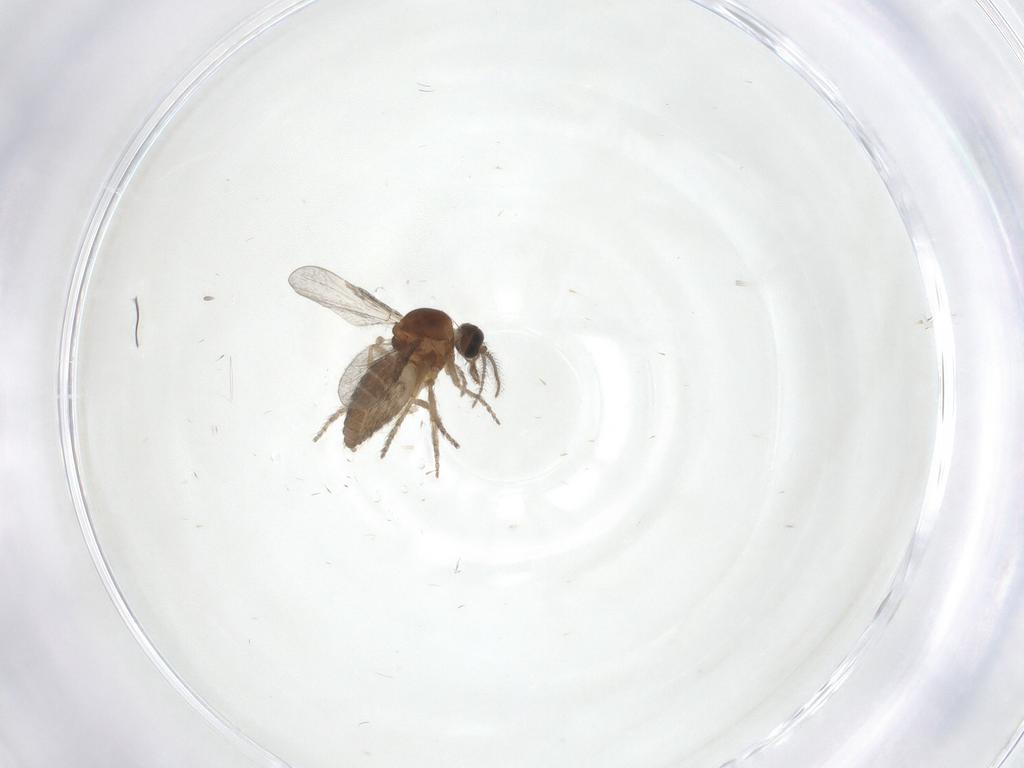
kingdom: Animalia
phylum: Arthropoda
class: Insecta
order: Diptera
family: Ceratopogonidae
